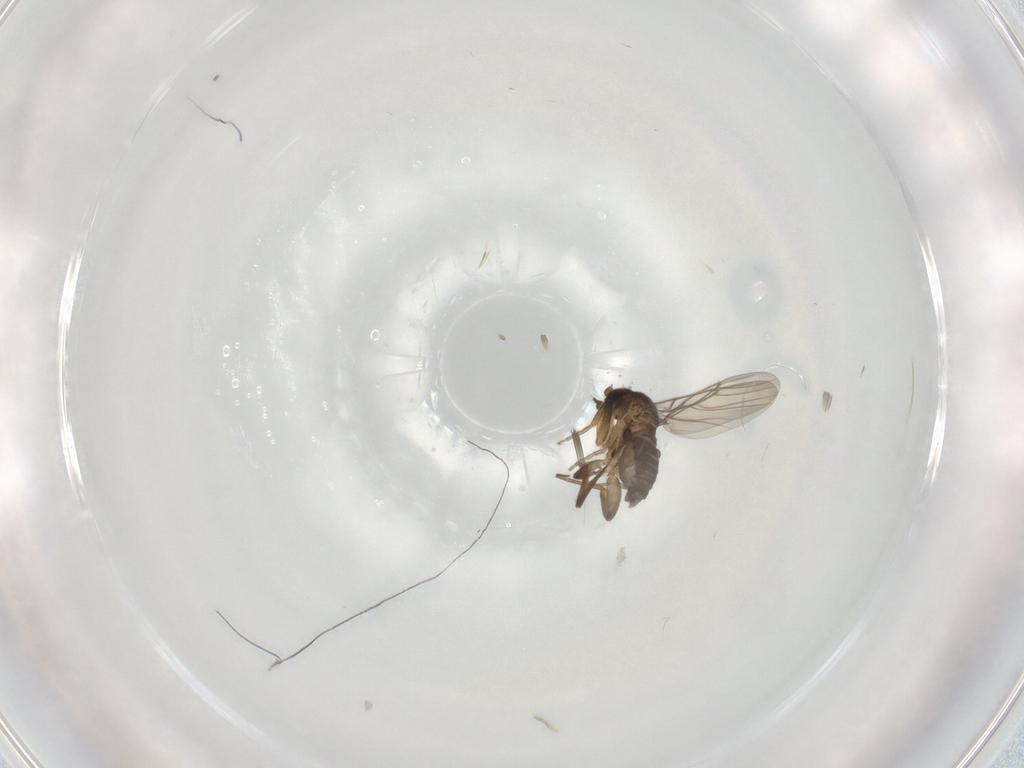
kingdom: Animalia
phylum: Arthropoda
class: Insecta
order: Diptera
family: Phoridae
